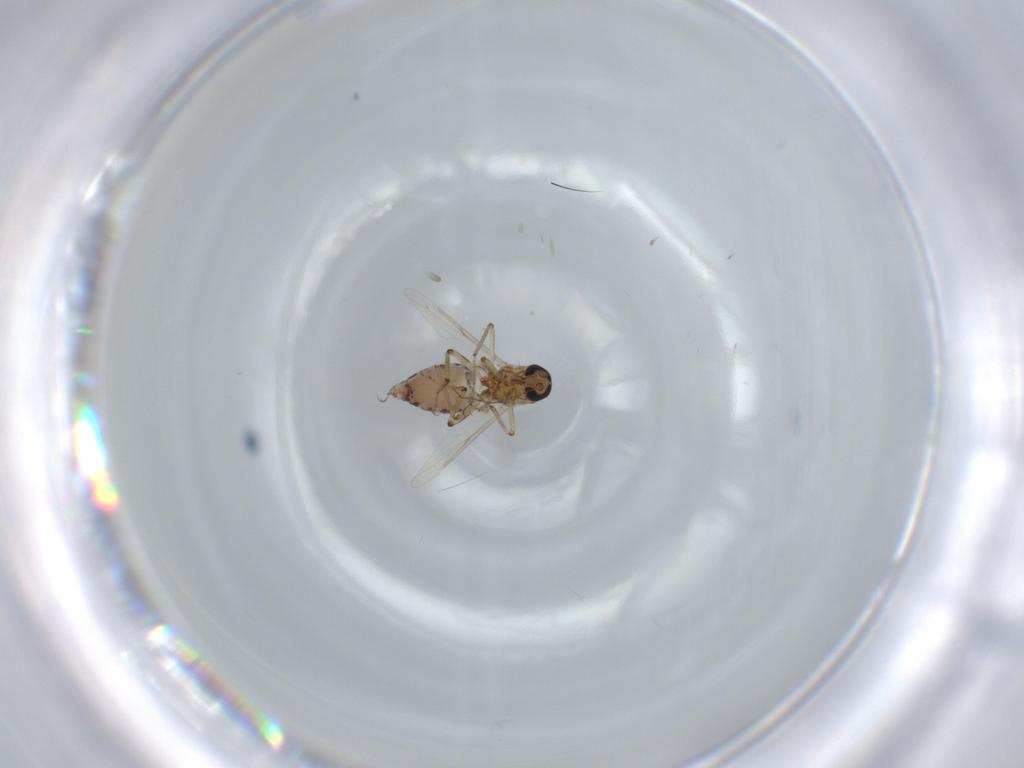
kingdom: Animalia
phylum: Arthropoda
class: Insecta
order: Diptera
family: Ceratopogonidae
